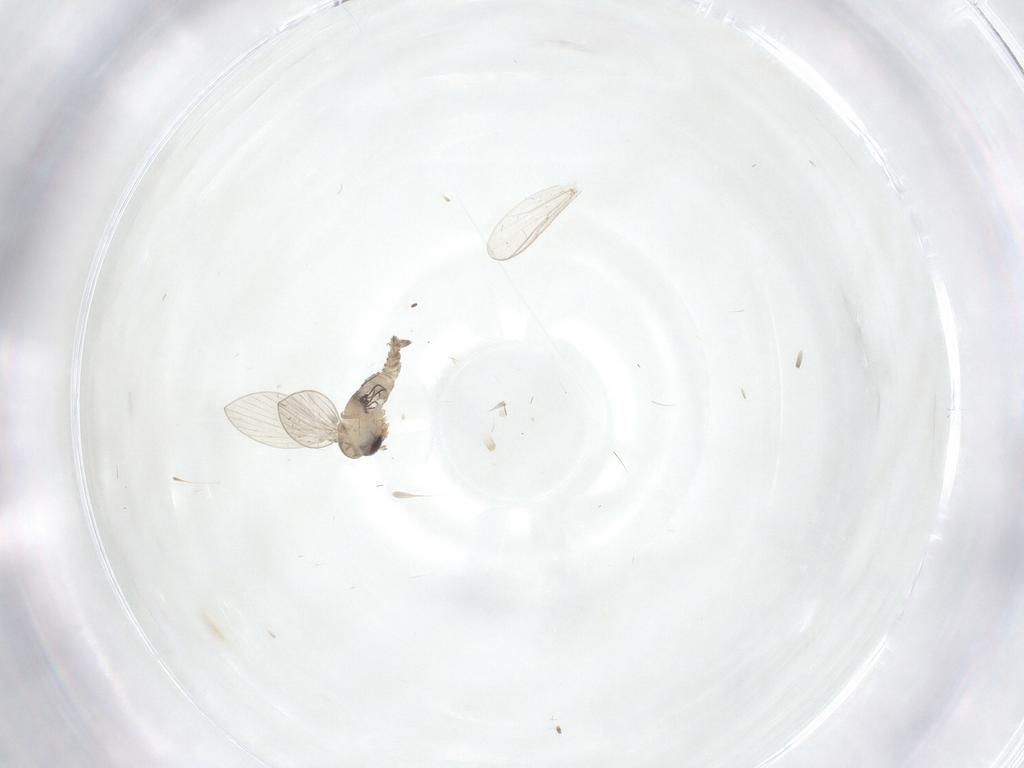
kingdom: Animalia
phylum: Arthropoda
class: Insecta
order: Diptera
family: Psychodidae
